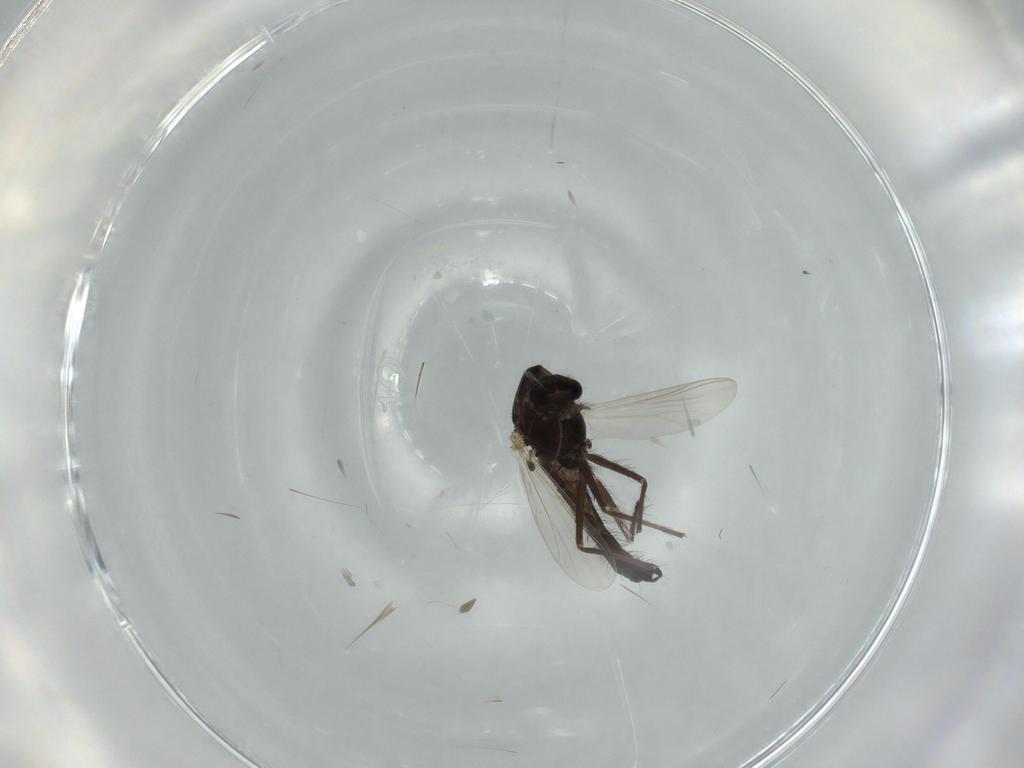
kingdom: Animalia
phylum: Arthropoda
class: Insecta
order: Diptera
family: Chironomidae
